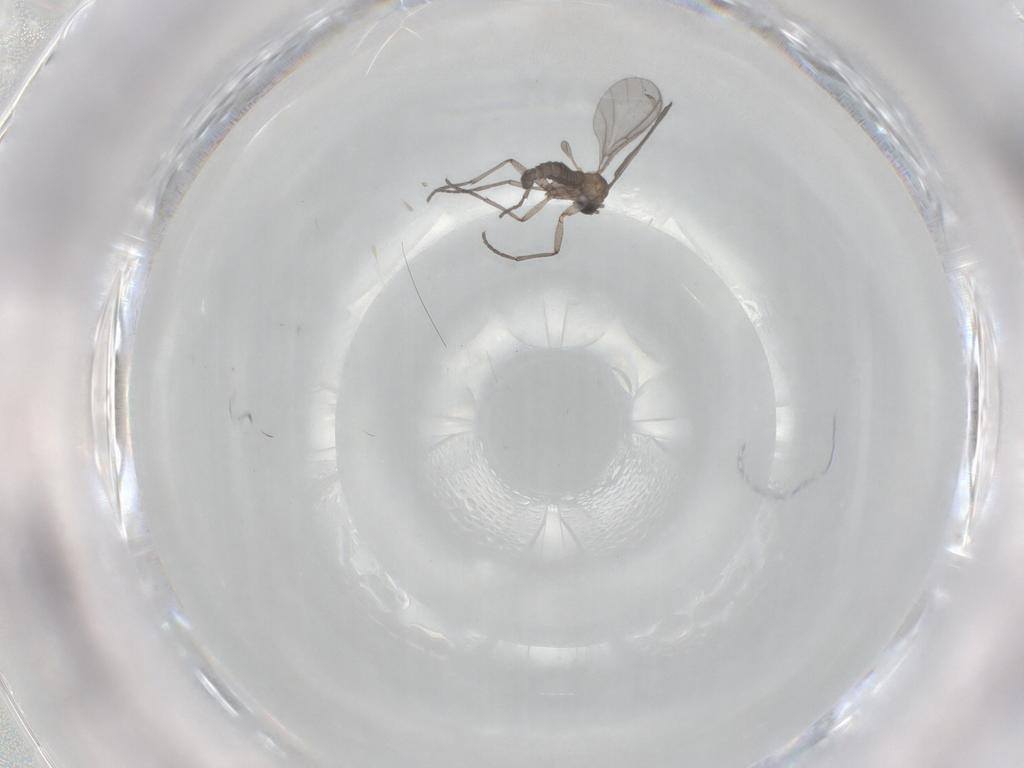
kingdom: Animalia
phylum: Arthropoda
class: Insecta
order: Diptera
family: Sciaridae
